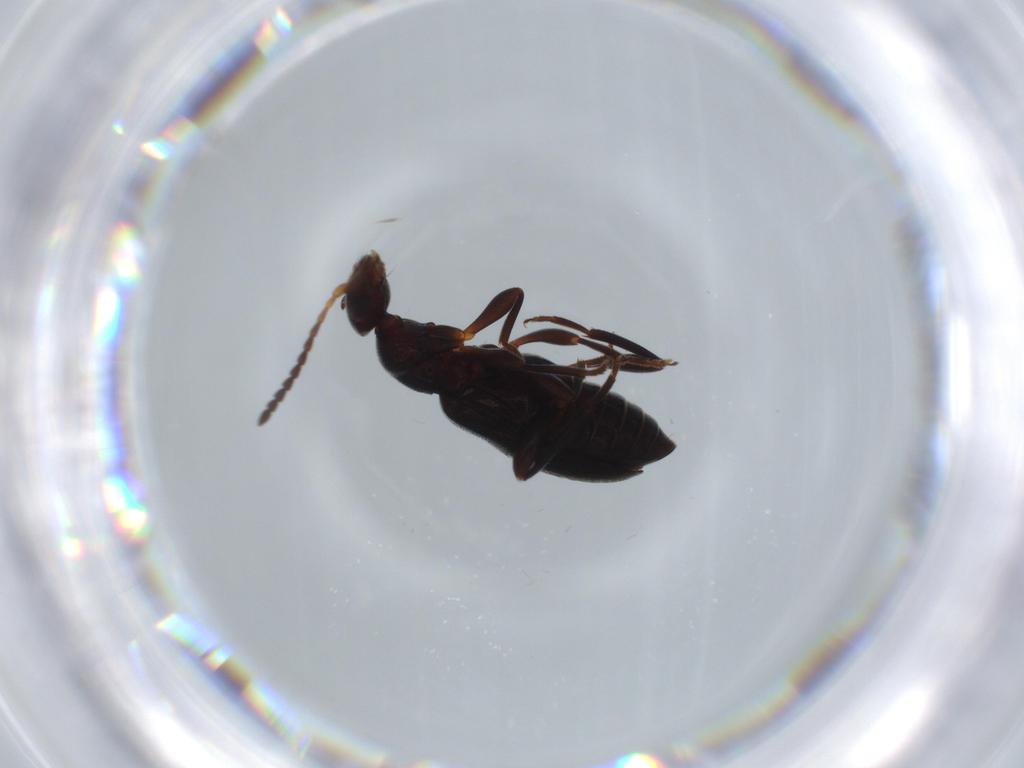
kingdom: Animalia
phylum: Arthropoda
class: Insecta
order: Coleoptera
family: Anthicidae
